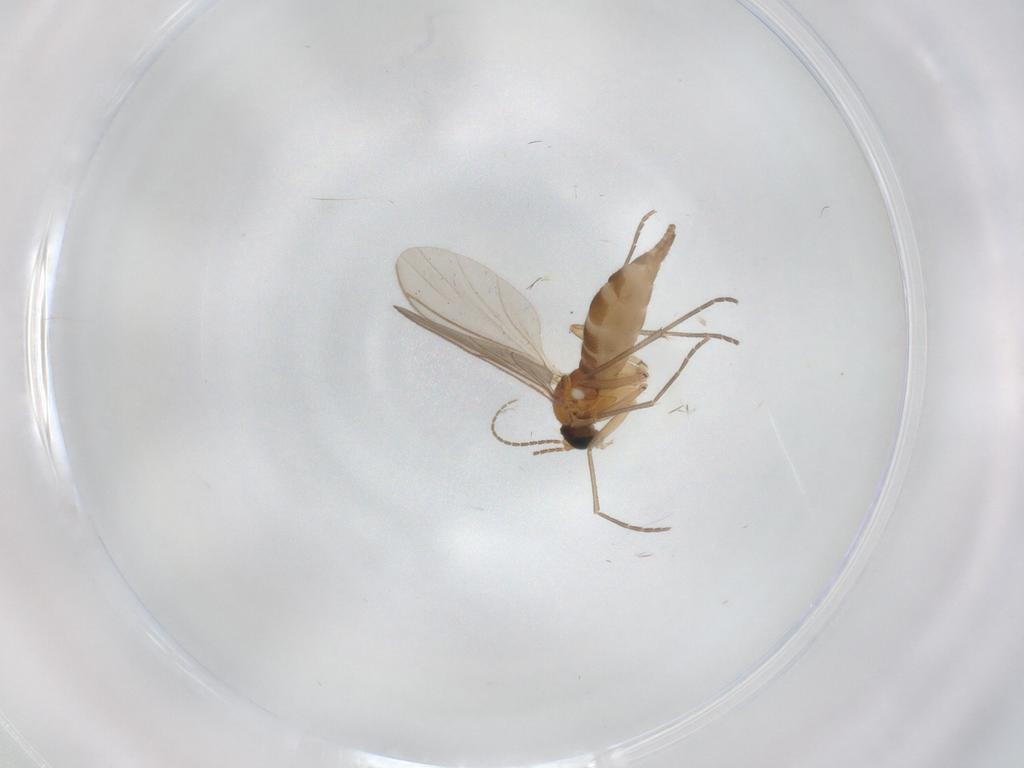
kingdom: Animalia
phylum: Arthropoda
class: Insecta
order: Diptera
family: Sciaridae
